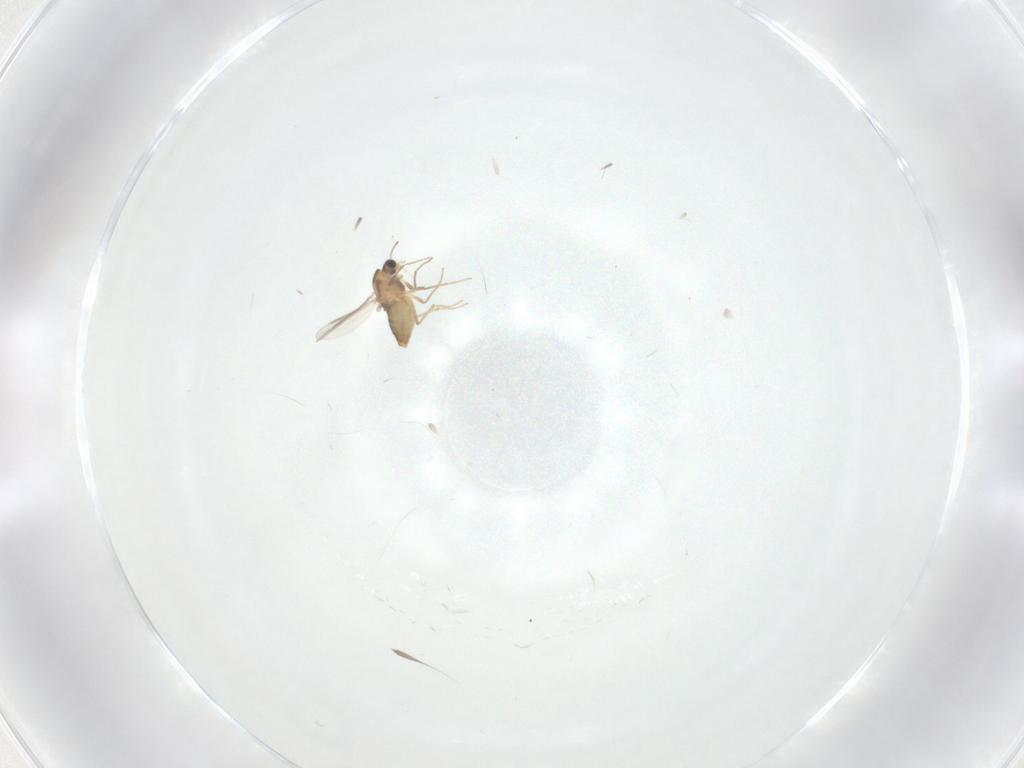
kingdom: Animalia
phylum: Arthropoda
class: Insecta
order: Diptera
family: Chironomidae
